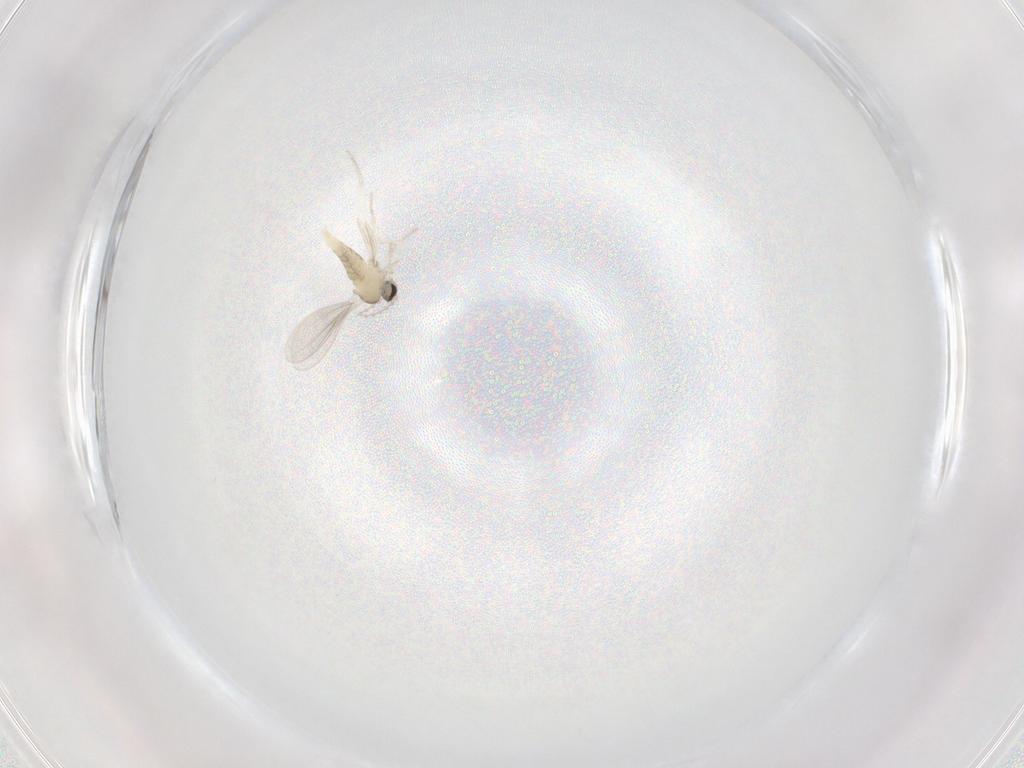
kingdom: Animalia
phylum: Arthropoda
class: Insecta
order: Diptera
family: Cecidomyiidae
